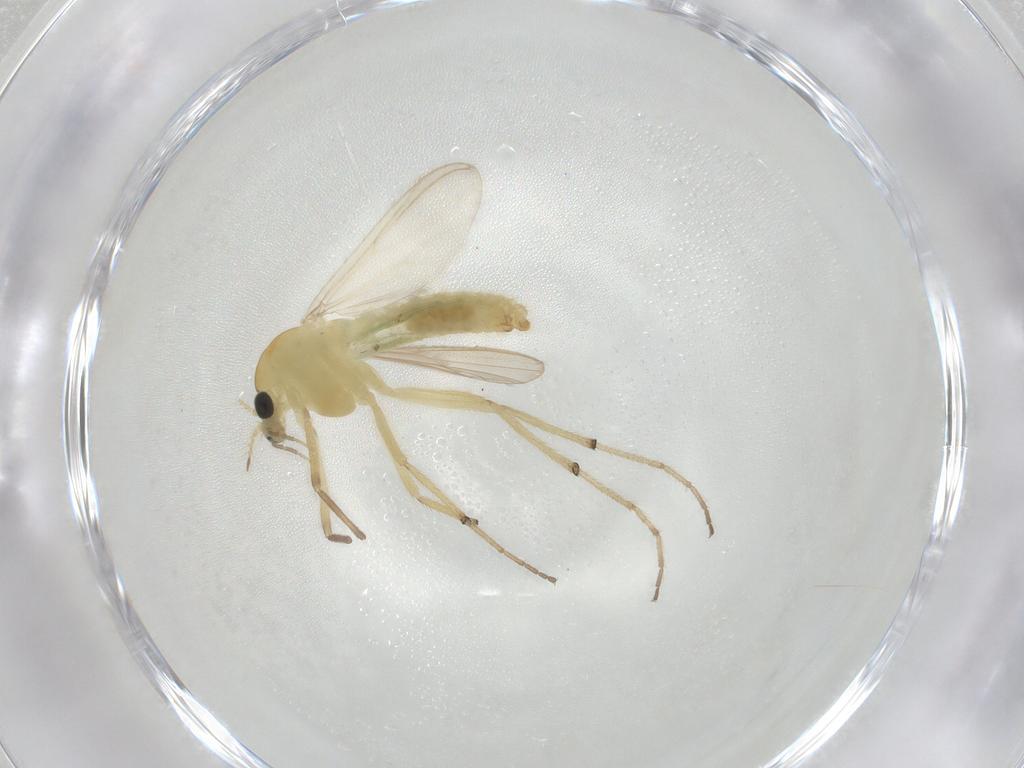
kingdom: Animalia
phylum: Arthropoda
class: Insecta
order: Diptera
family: Chironomidae
